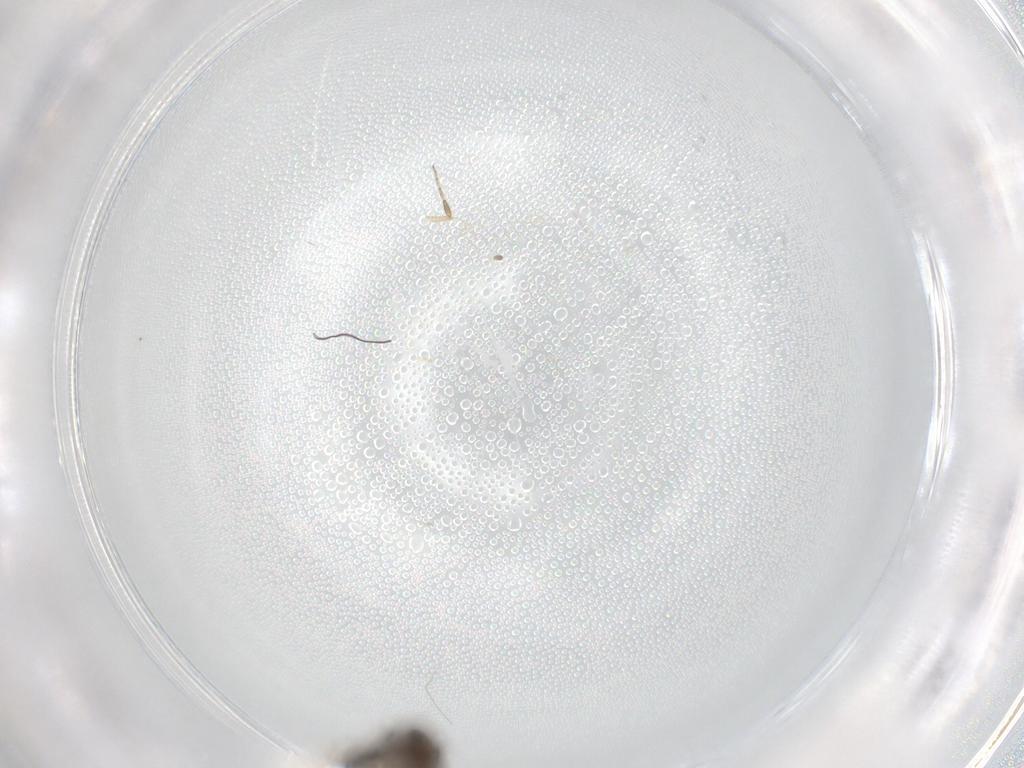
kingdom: Animalia
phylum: Arthropoda
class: Insecta
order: Diptera
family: Ceratopogonidae
